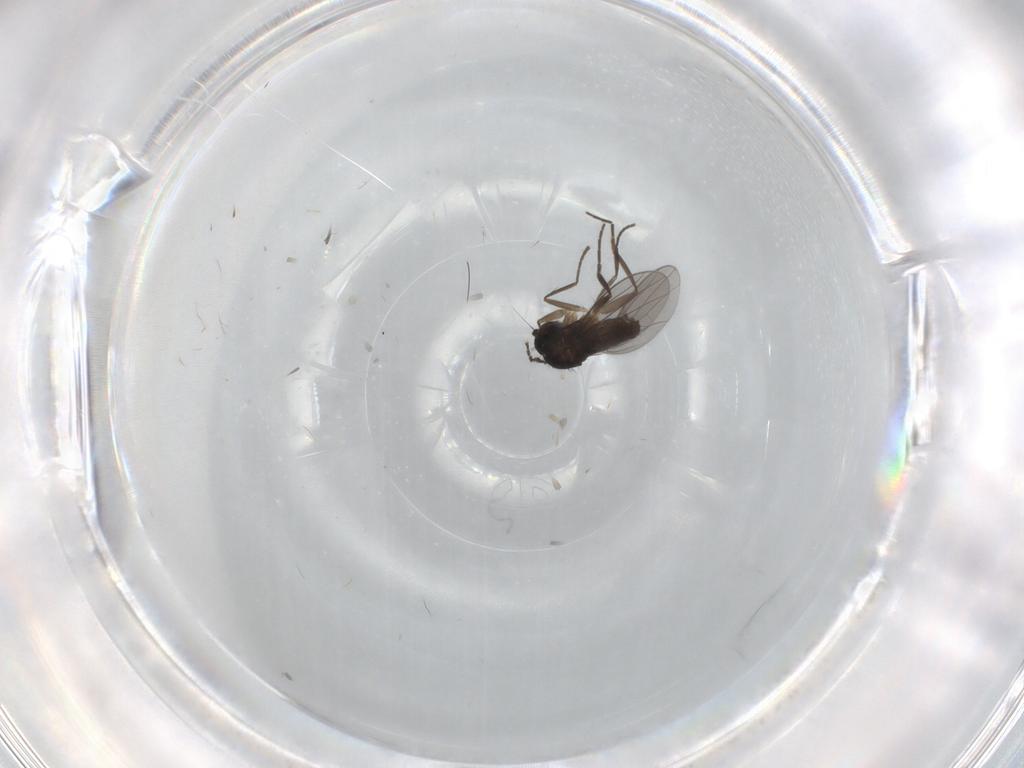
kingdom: Animalia
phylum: Arthropoda
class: Insecta
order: Diptera
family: Dolichopodidae
